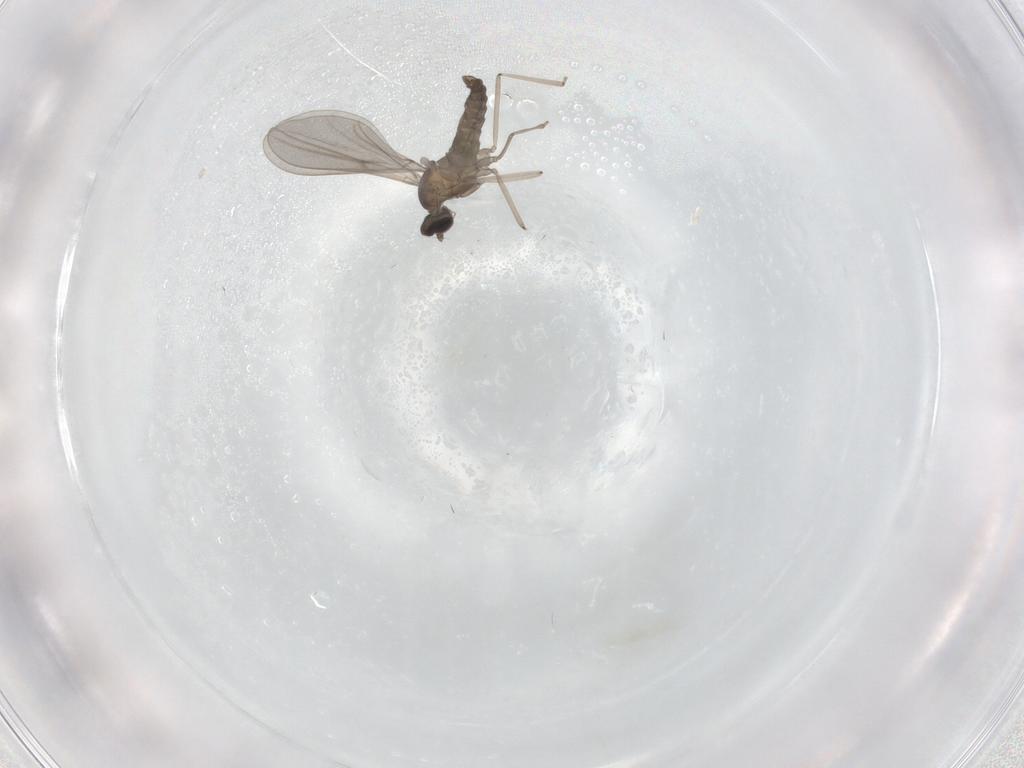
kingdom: Animalia
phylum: Arthropoda
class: Insecta
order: Diptera
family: Cecidomyiidae
